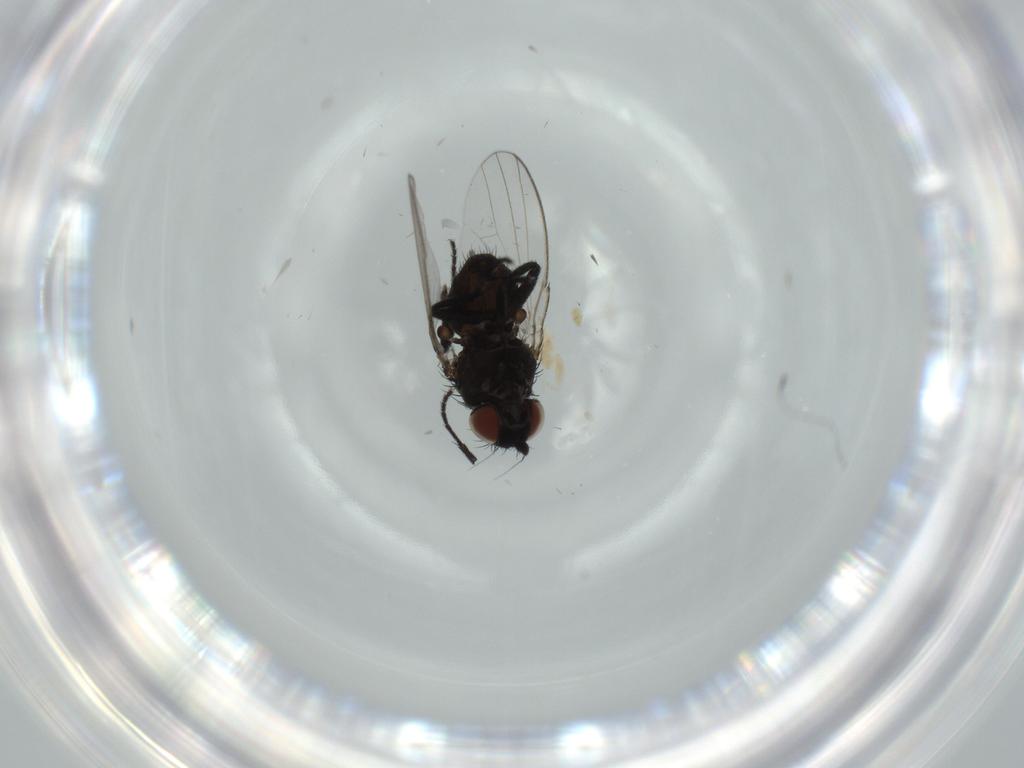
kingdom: Animalia
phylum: Arthropoda
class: Insecta
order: Diptera
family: Milichiidae
